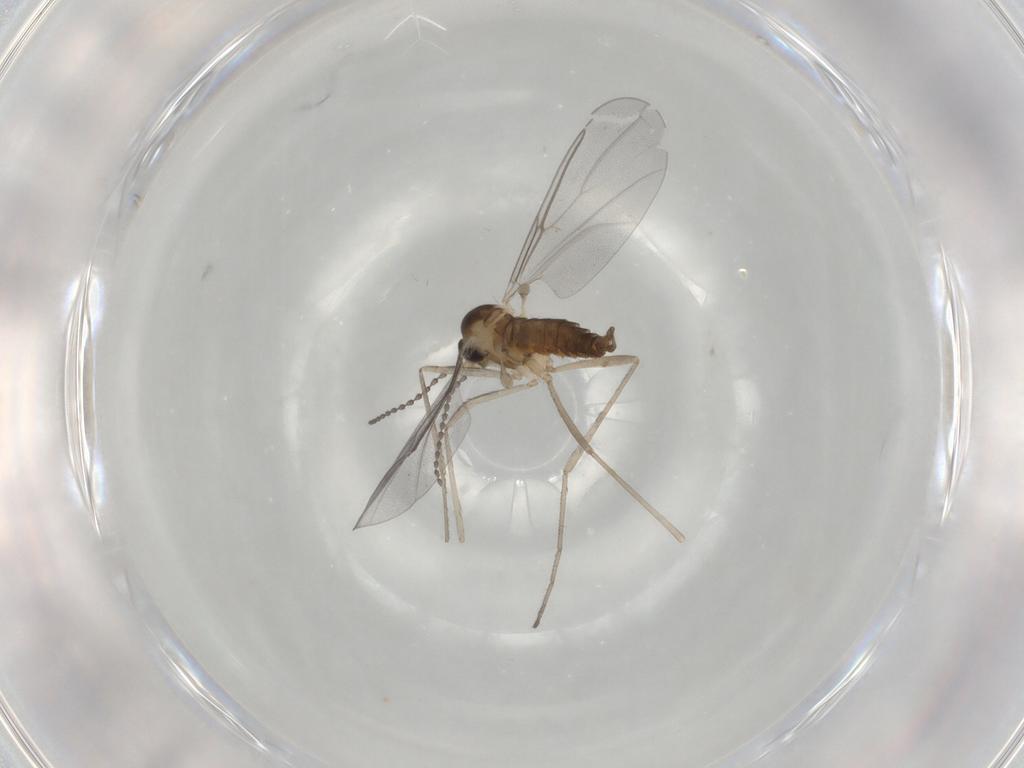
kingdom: Animalia
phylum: Arthropoda
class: Insecta
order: Diptera
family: Cecidomyiidae
